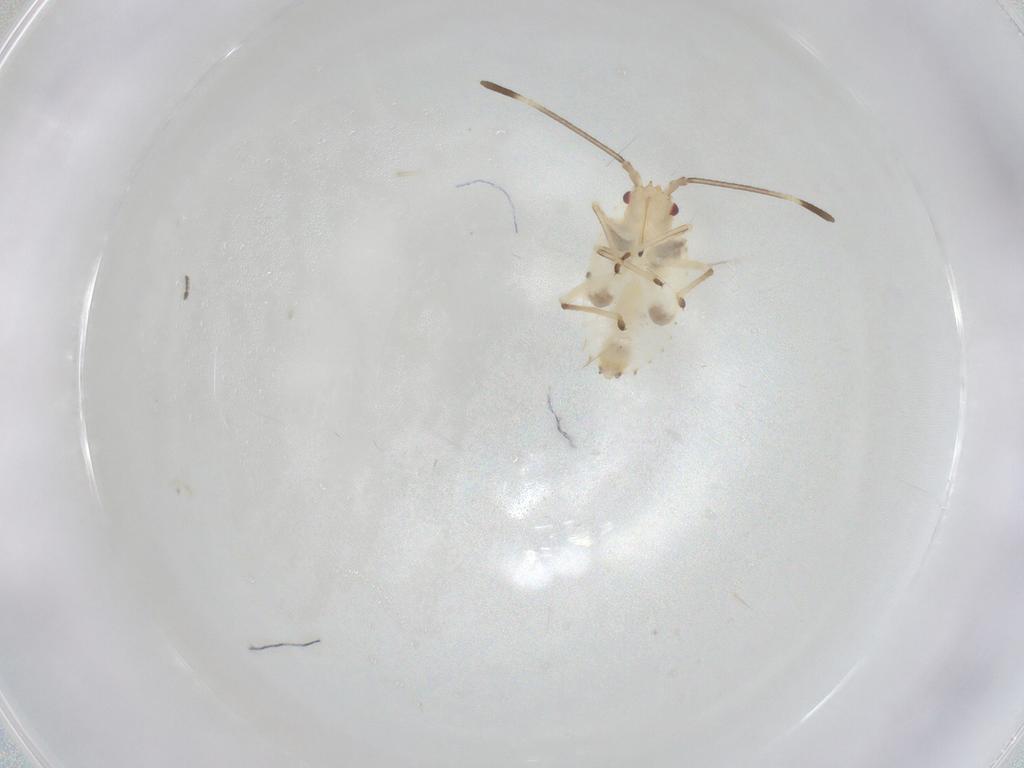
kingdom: Animalia
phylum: Arthropoda
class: Insecta
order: Hemiptera
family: Tingidae
